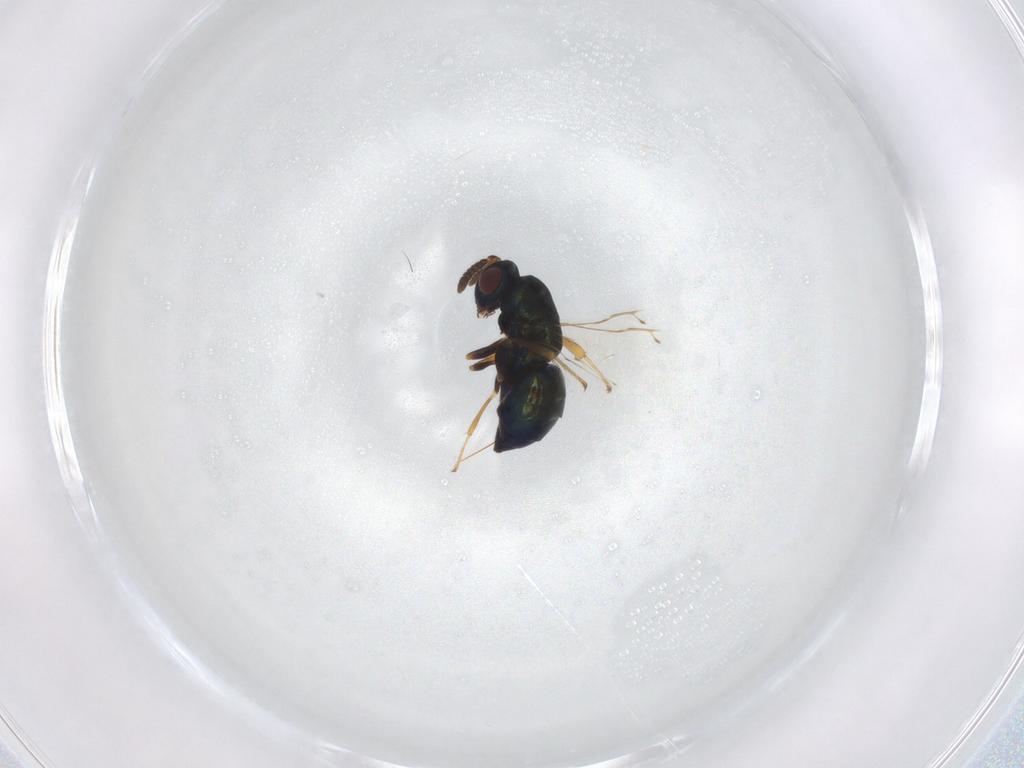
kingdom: Animalia
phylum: Arthropoda
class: Insecta
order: Hymenoptera
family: Pteromalidae
